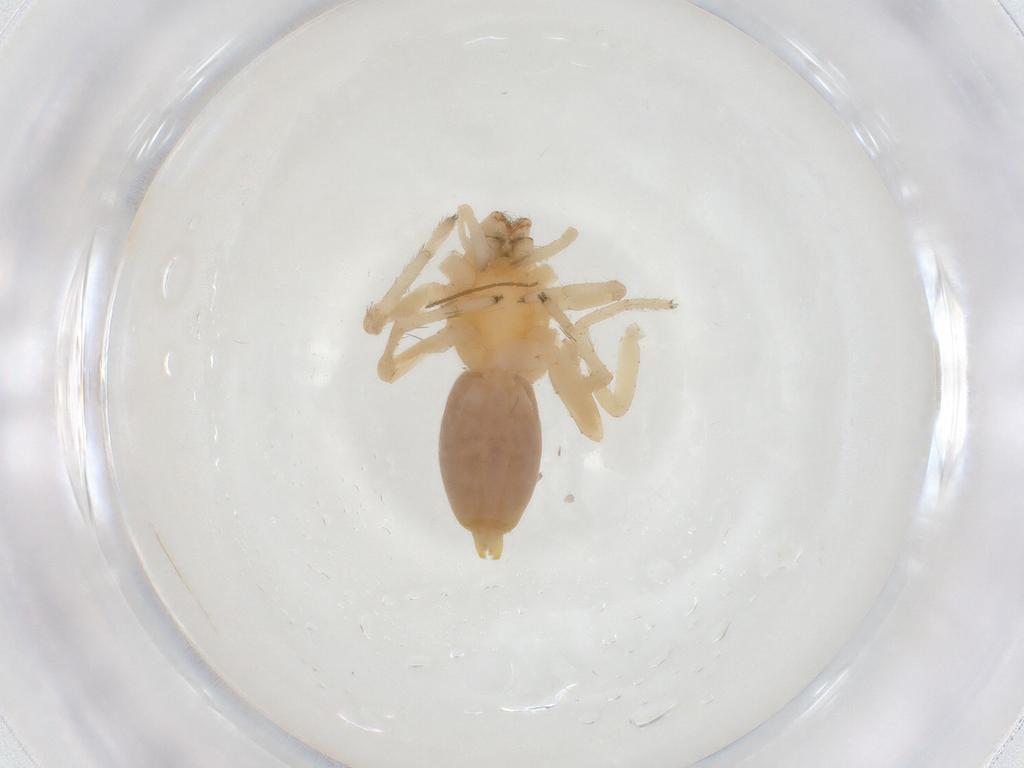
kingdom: Animalia
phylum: Arthropoda
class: Arachnida
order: Araneae
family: Anyphaenidae
